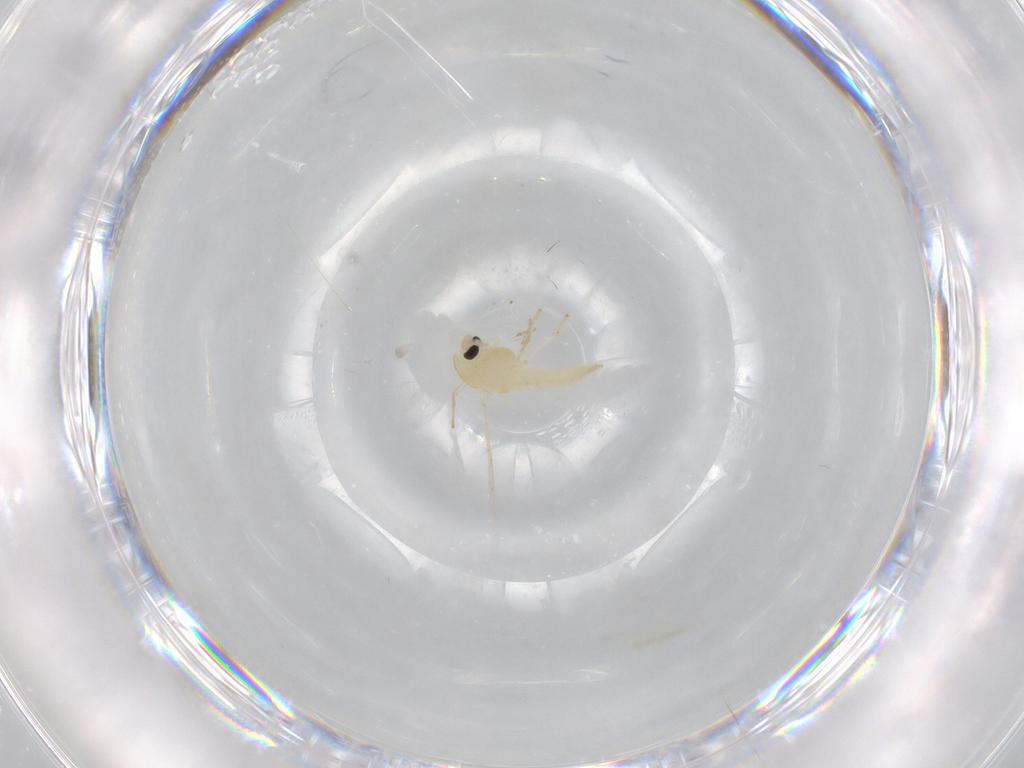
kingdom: Animalia
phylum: Arthropoda
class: Insecta
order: Diptera
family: Chironomidae
